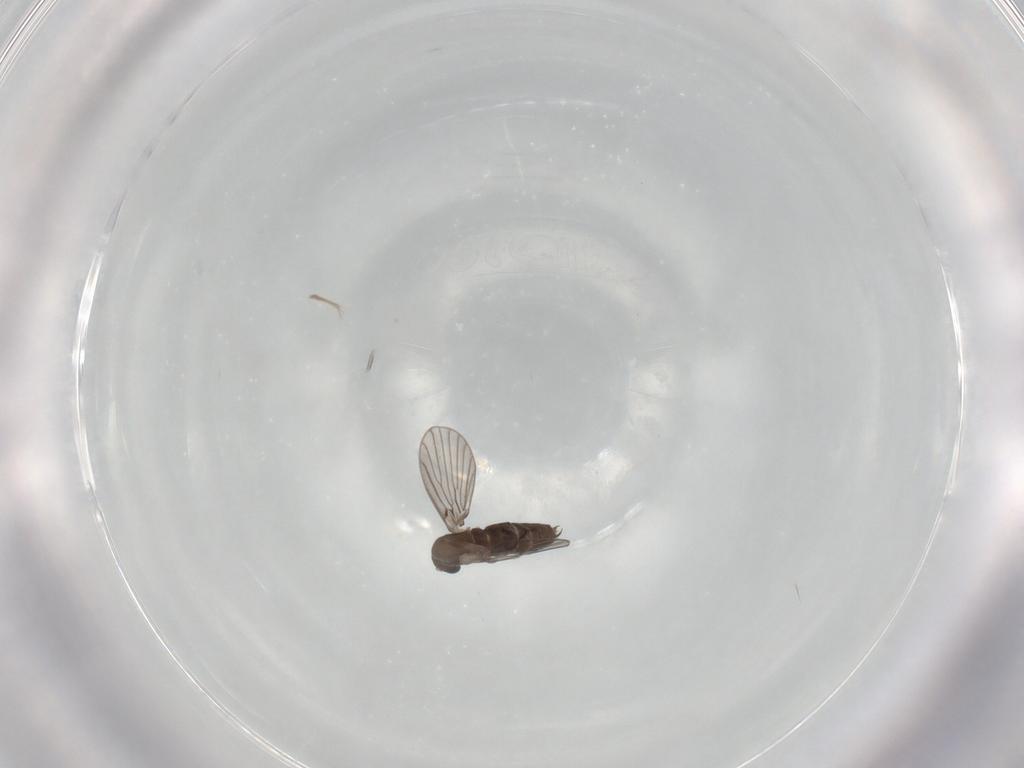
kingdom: Animalia
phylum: Arthropoda
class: Insecta
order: Diptera
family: Psychodidae
